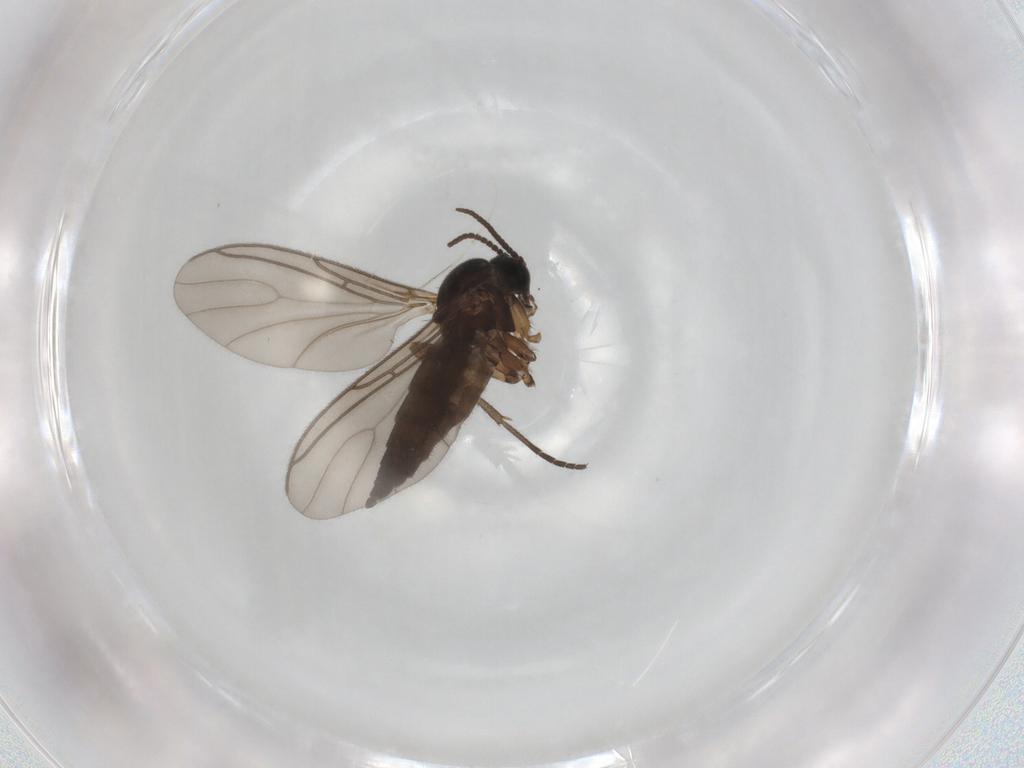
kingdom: Animalia
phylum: Arthropoda
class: Insecta
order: Diptera
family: Sciaridae
